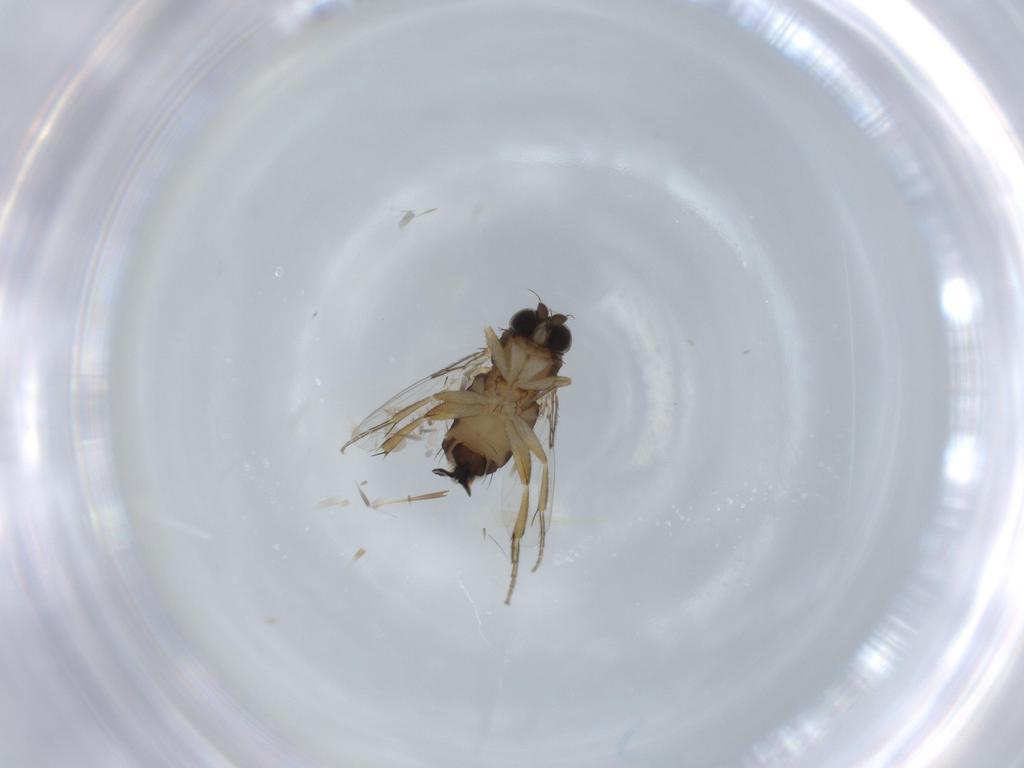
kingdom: Animalia
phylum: Arthropoda
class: Insecta
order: Diptera
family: Phoridae
